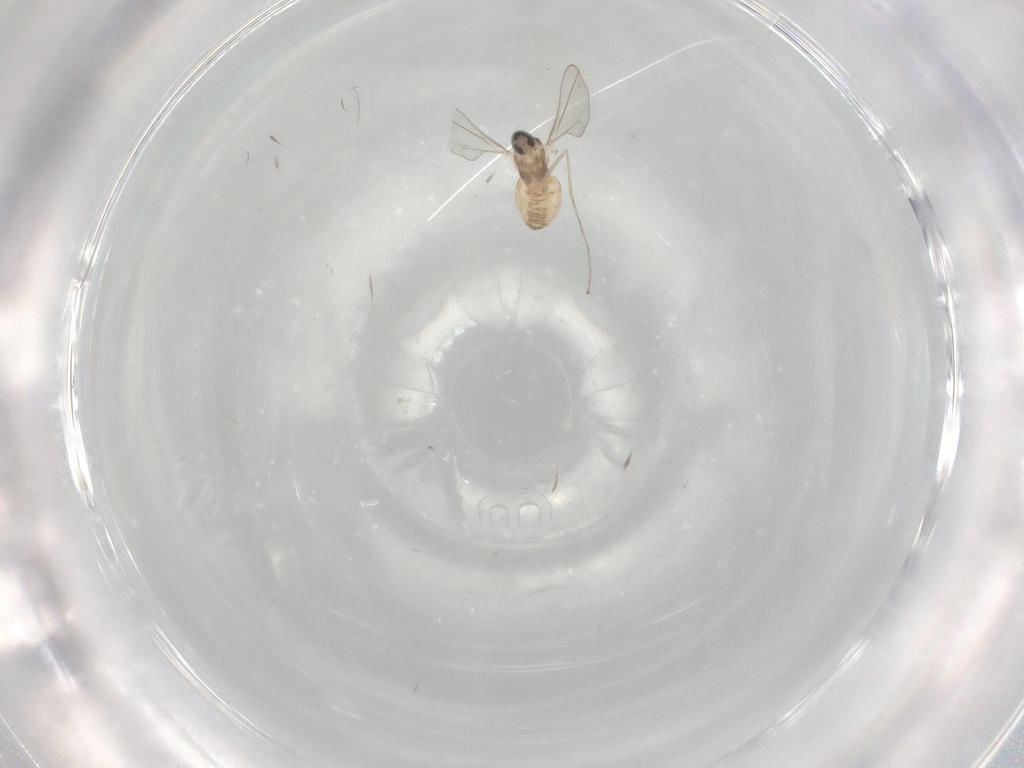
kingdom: Animalia
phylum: Arthropoda
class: Insecta
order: Diptera
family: Cecidomyiidae
